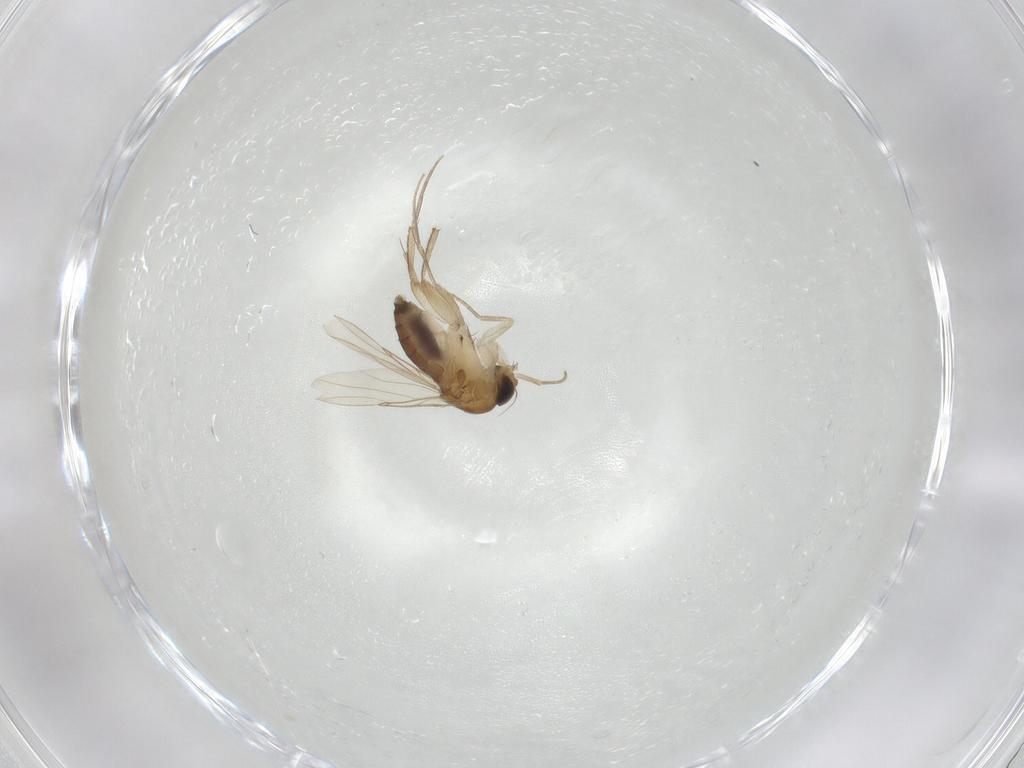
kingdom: Animalia
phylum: Arthropoda
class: Insecta
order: Diptera
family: Phoridae
